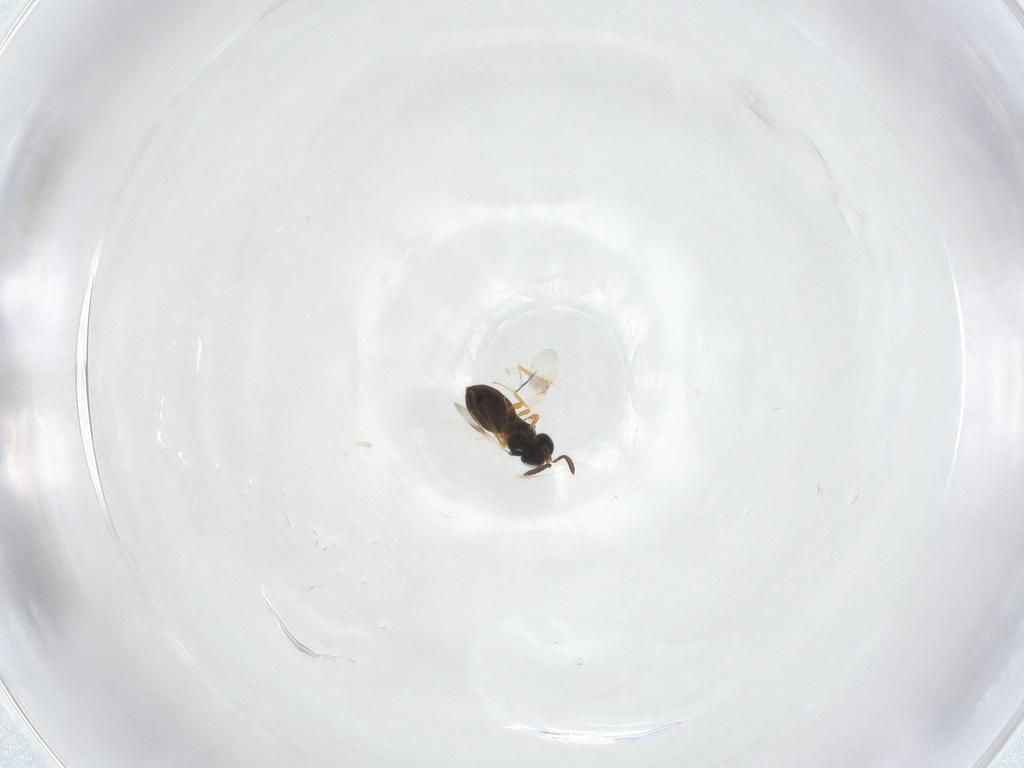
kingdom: Animalia
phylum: Arthropoda
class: Insecta
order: Hymenoptera
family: Scelionidae
